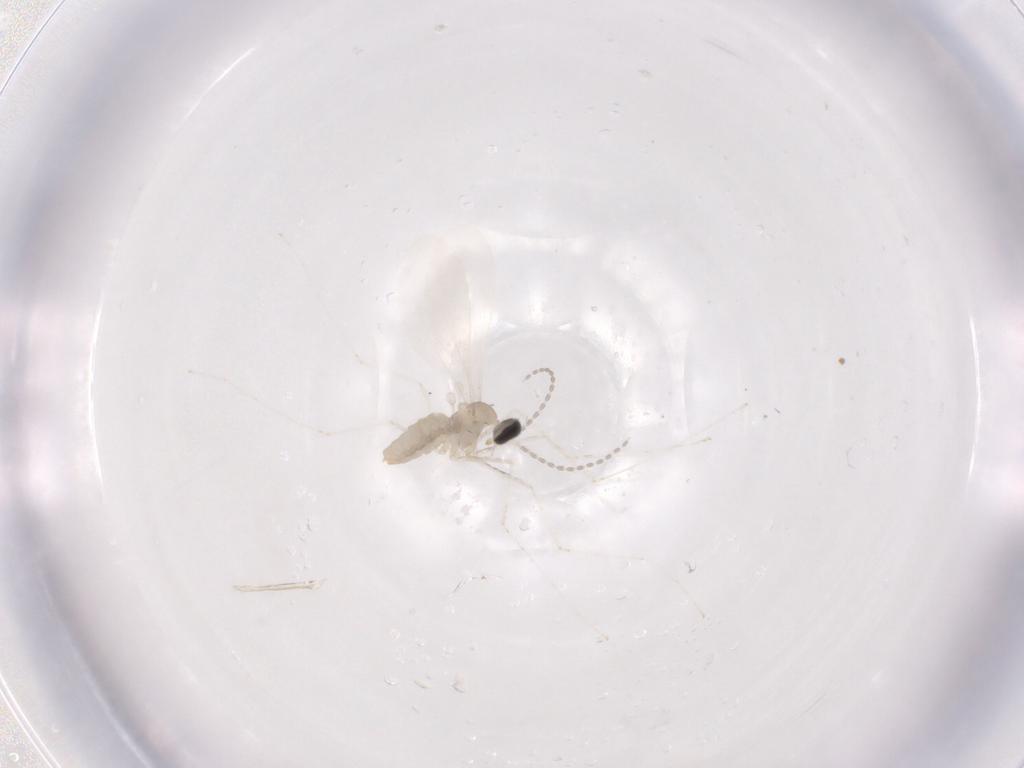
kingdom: Animalia
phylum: Arthropoda
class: Insecta
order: Diptera
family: Cecidomyiidae
